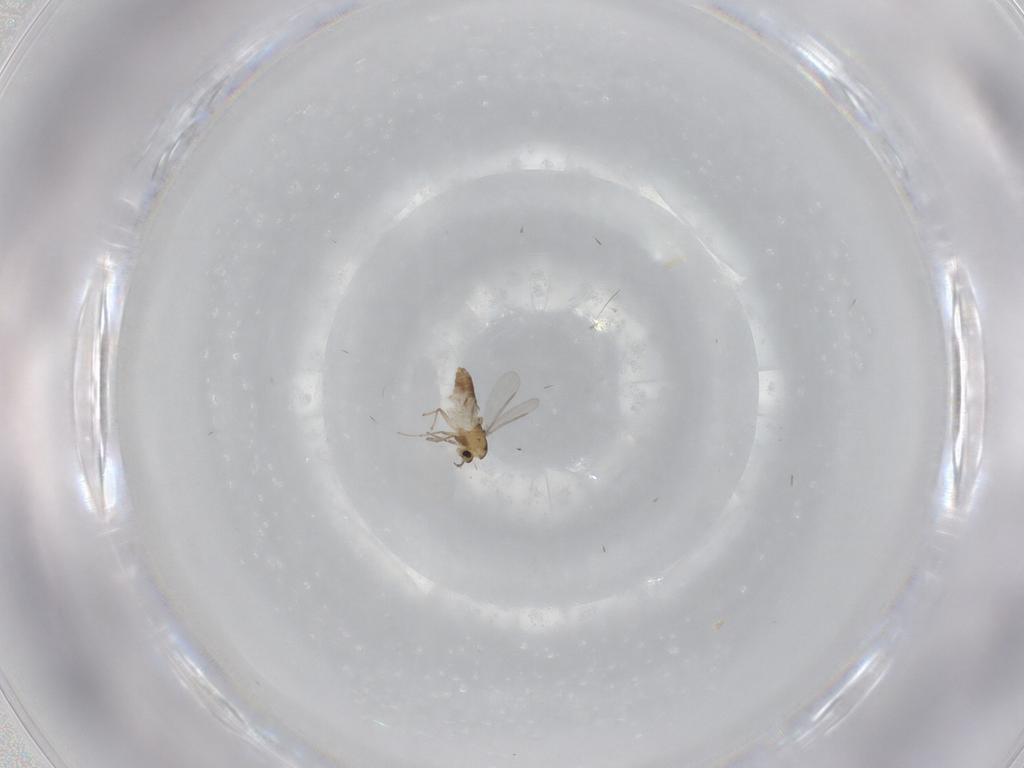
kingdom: Animalia
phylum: Arthropoda
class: Insecta
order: Diptera
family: Chironomidae
